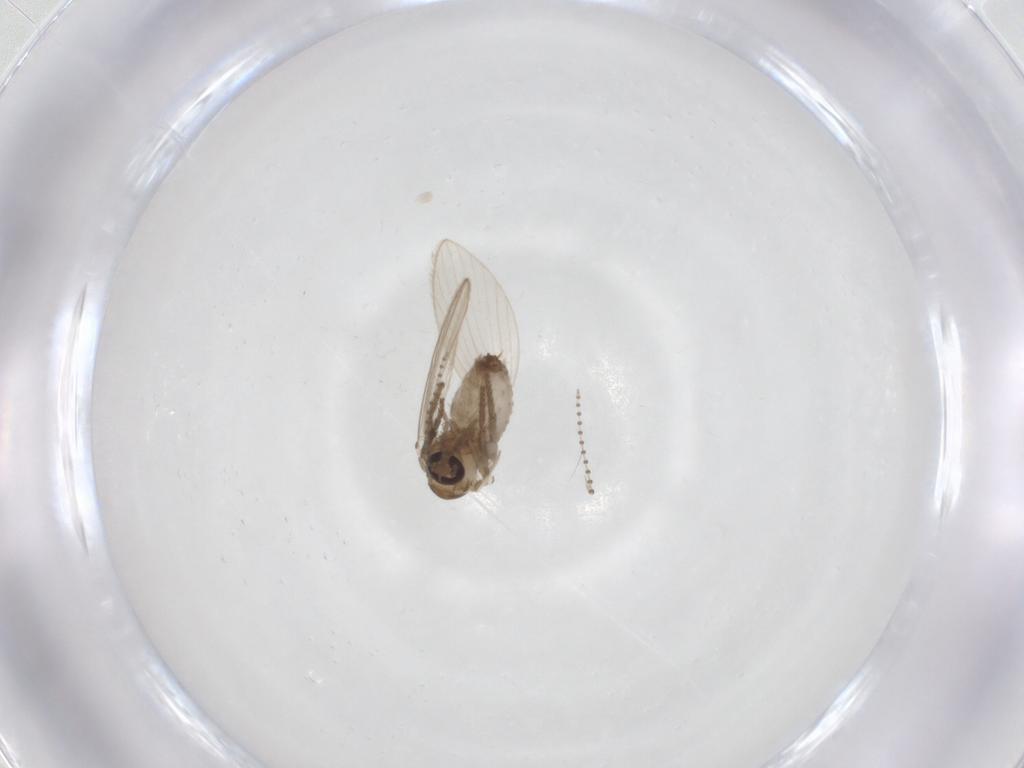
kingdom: Animalia
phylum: Arthropoda
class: Insecta
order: Diptera
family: Psychodidae
